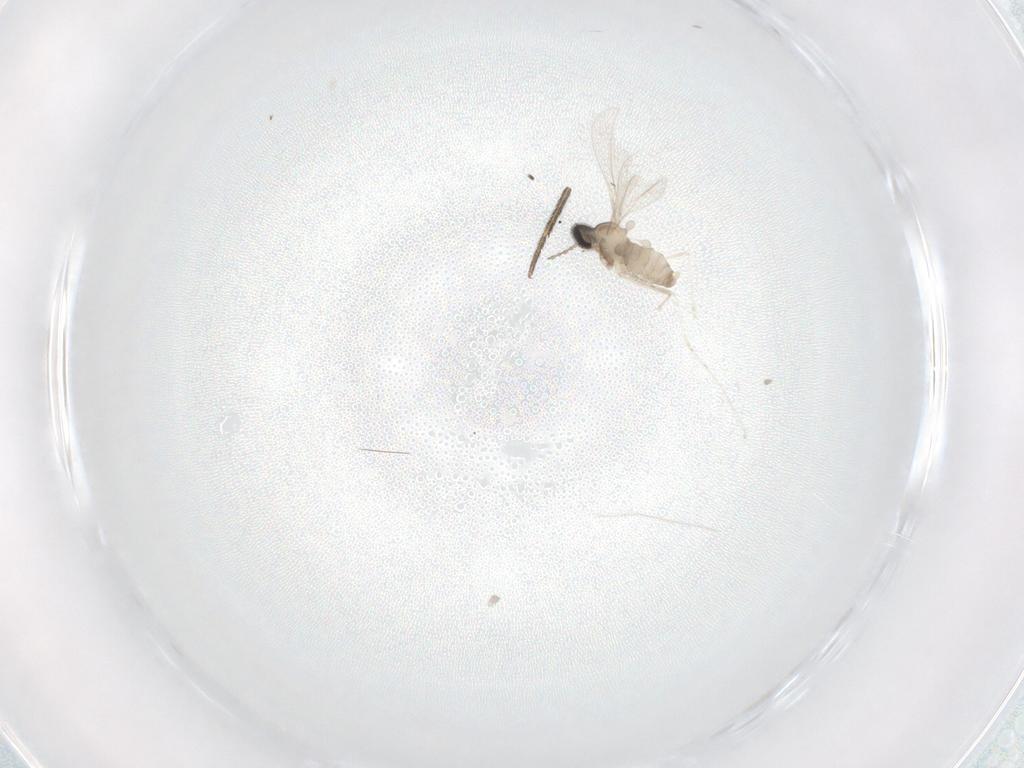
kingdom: Animalia
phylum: Arthropoda
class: Insecta
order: Diptera
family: Cecidomyiidae
